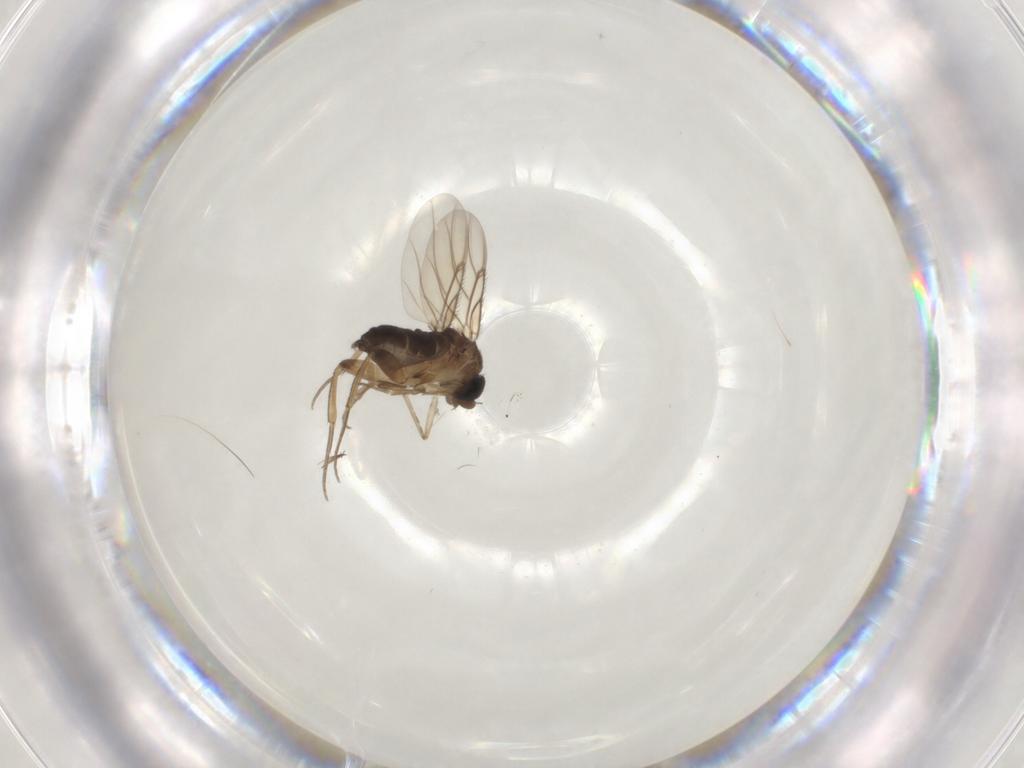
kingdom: Animalia
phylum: Arthropoda
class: Insecta
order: Diptera
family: Phoridae
